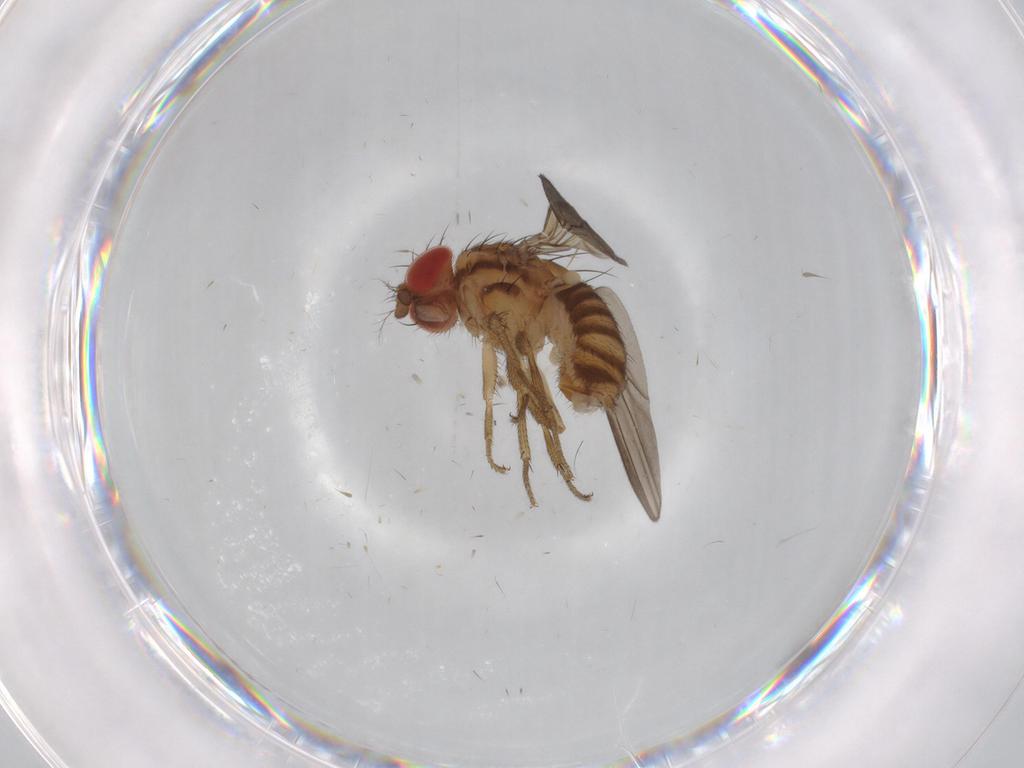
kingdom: Animalia
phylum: Arthropoda
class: Insecta
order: Diptera
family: Drosophilidae
